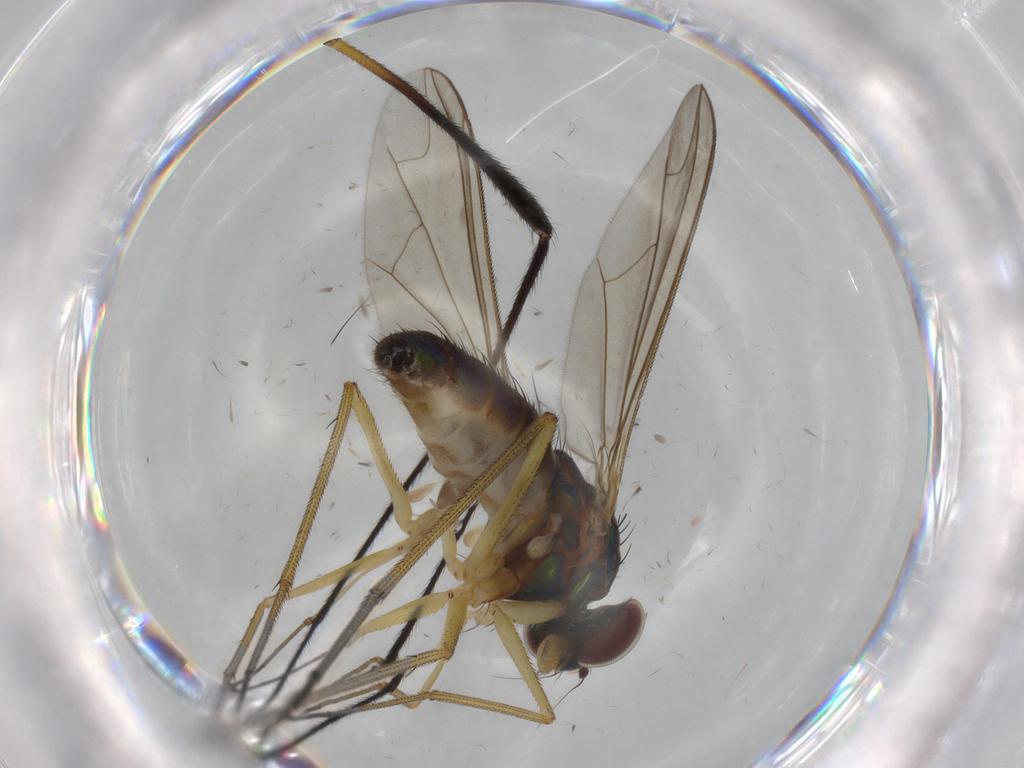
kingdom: Animalia
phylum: Arthropoda
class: Insecta
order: Diptera
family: Dolichopodidae
